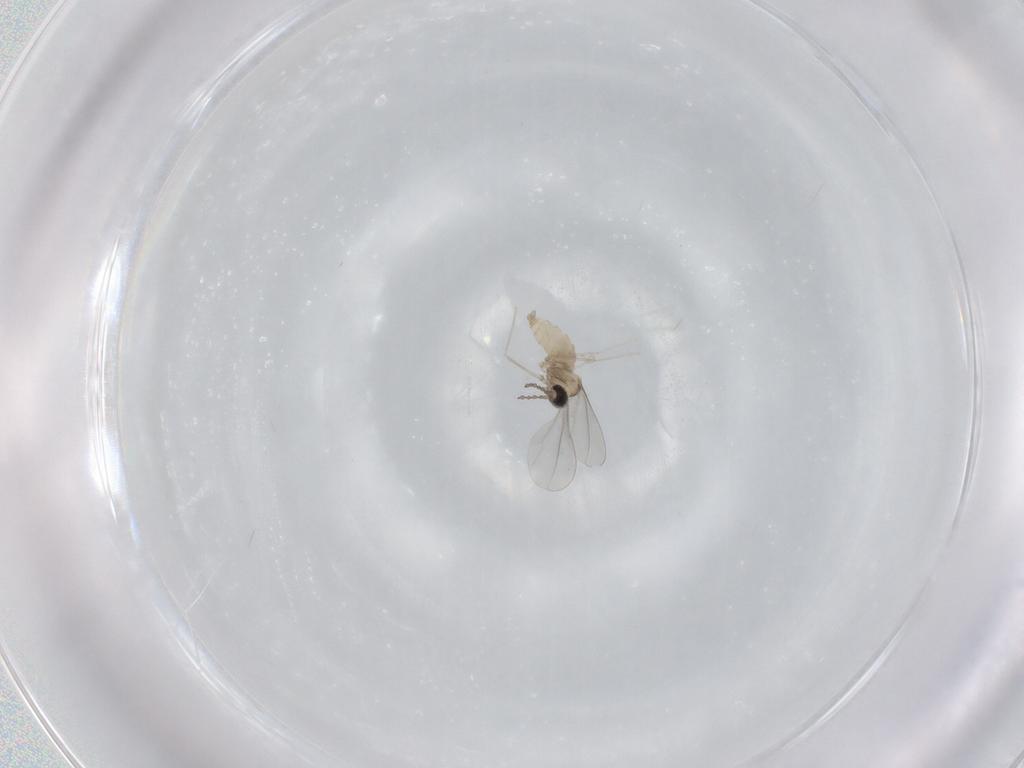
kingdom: Animalia
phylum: Arthropoda
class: Insecta
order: Diptera
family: Cecidomyiidae
